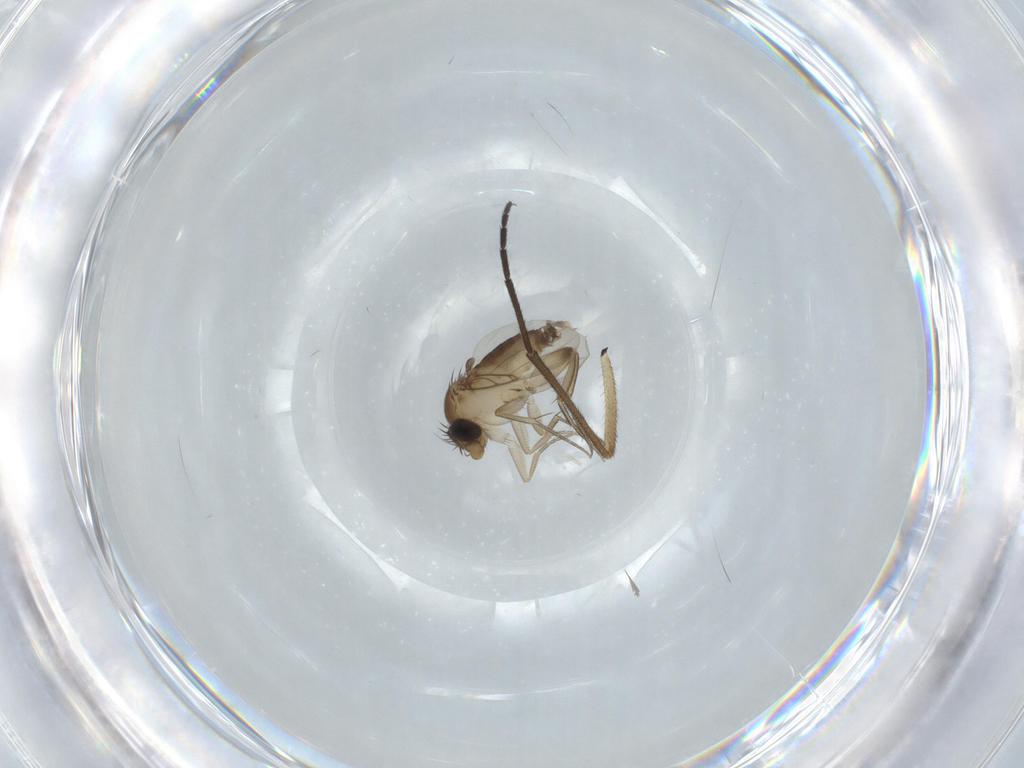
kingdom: Animalia
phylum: Arthropoda
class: Insecta
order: Diptera
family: Phoridae
